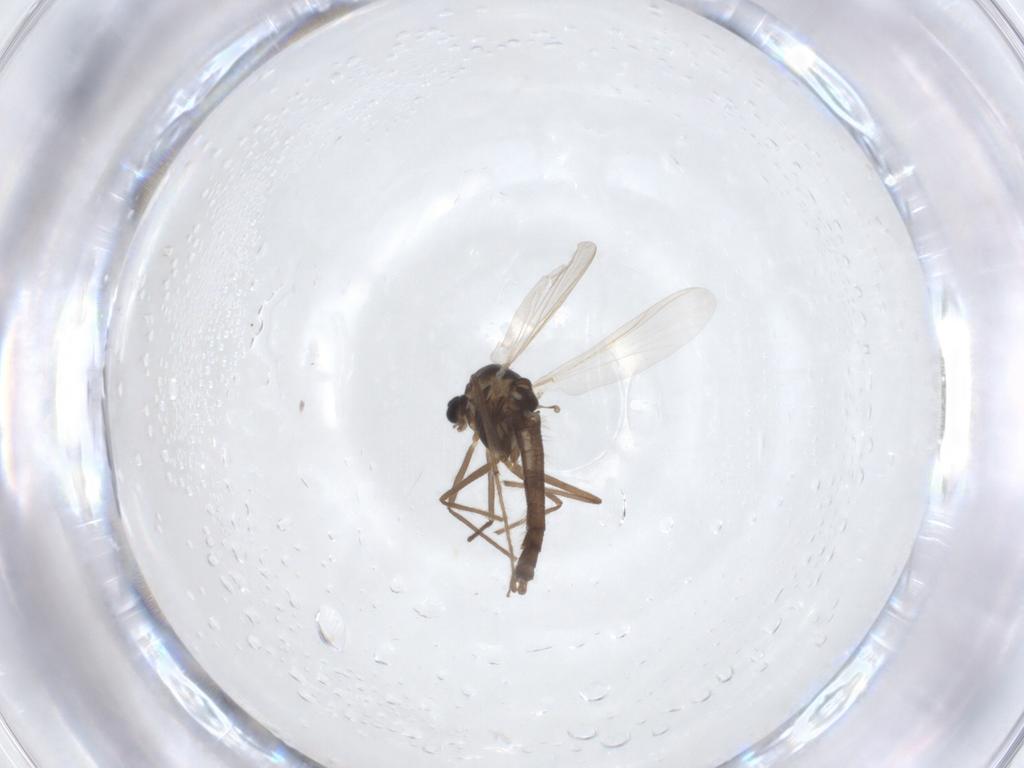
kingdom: Animalia
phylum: Arthropoda
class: Insecta
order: Diptera
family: Chironomidae
